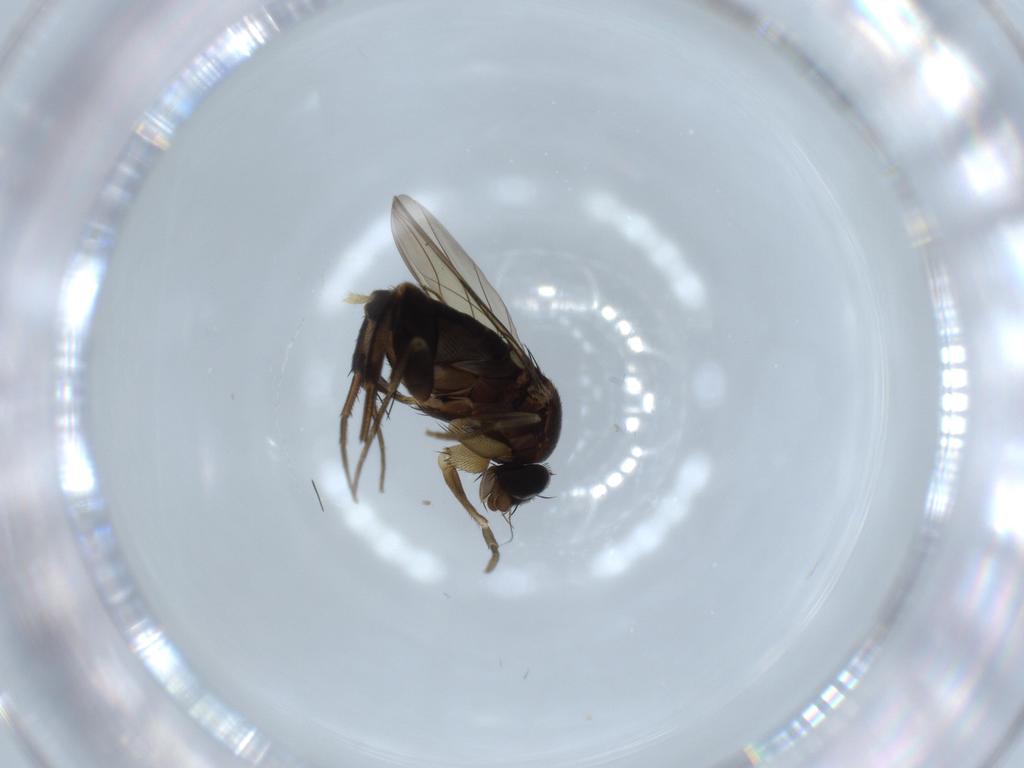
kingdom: Animalia
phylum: Arthropoda
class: Insecta
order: Diptera
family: Phoridae
